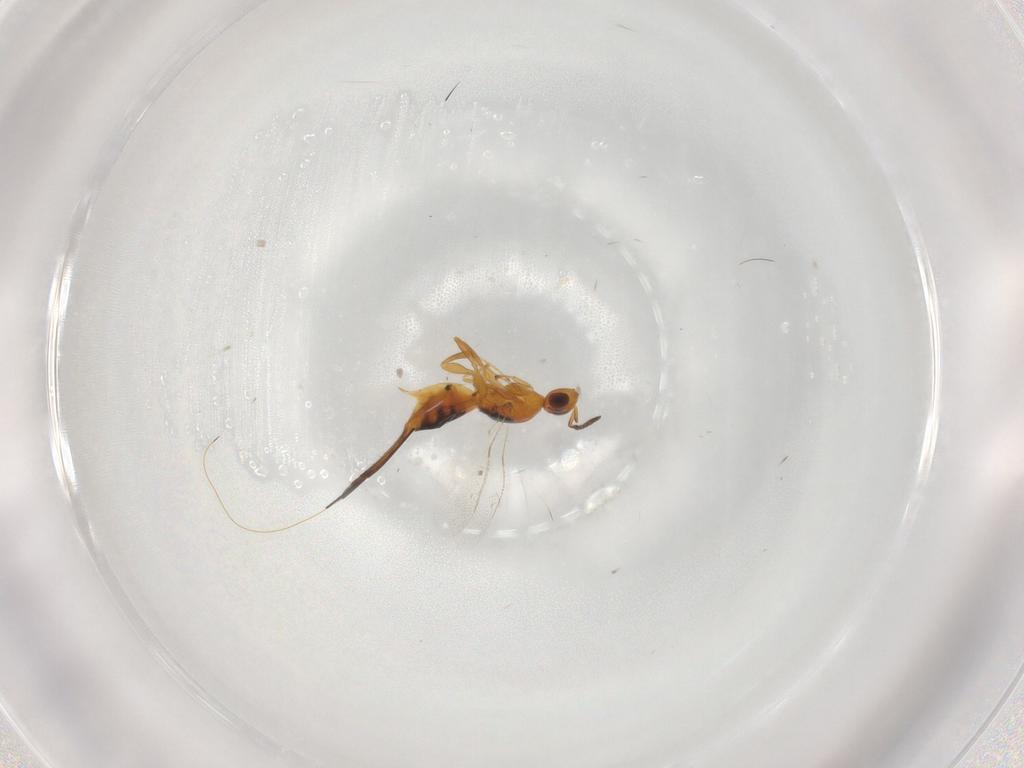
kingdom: Animalia
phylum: Arthropoda
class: Insecta
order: Hymenoptera
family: Pteromalidae
